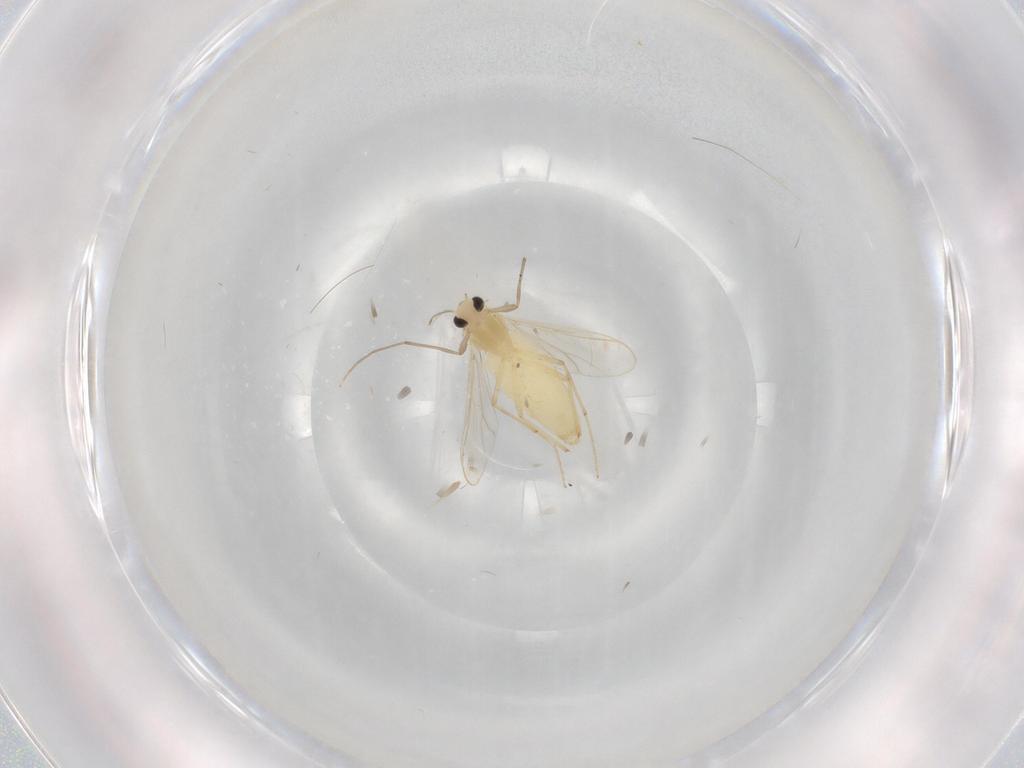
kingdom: Animalia
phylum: Arthropoda
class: Insecta
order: Diptera
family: Chironomidae
